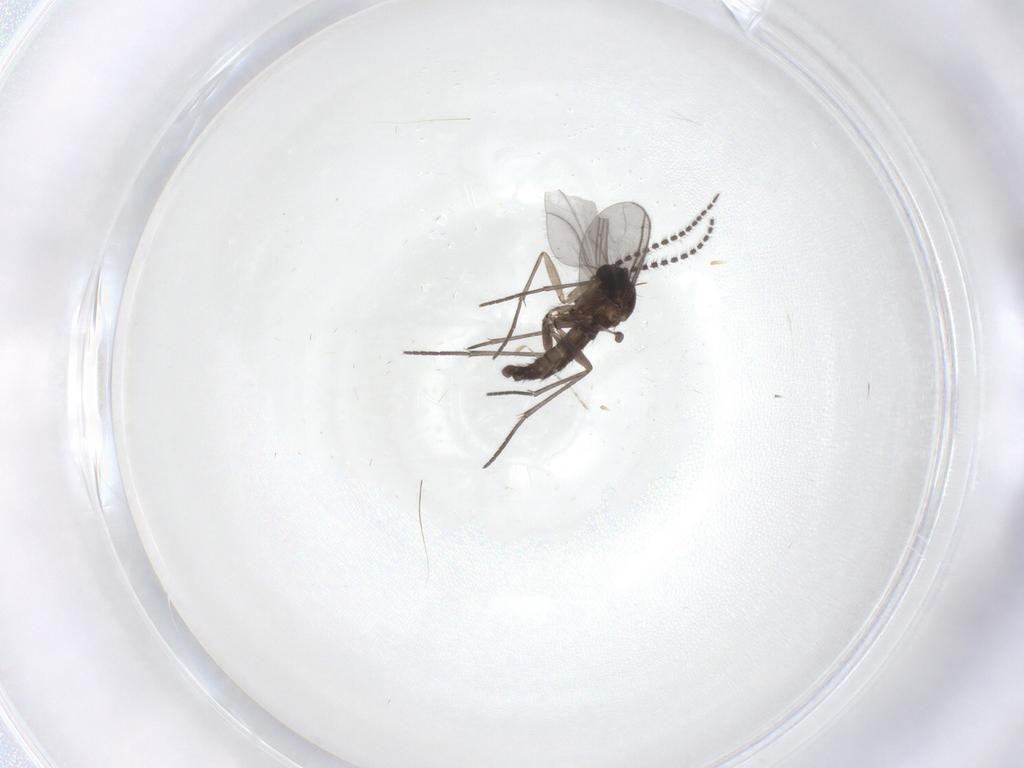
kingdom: Animalia
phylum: Arthropoda
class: Insecta
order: Diptera
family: Sciaridae
